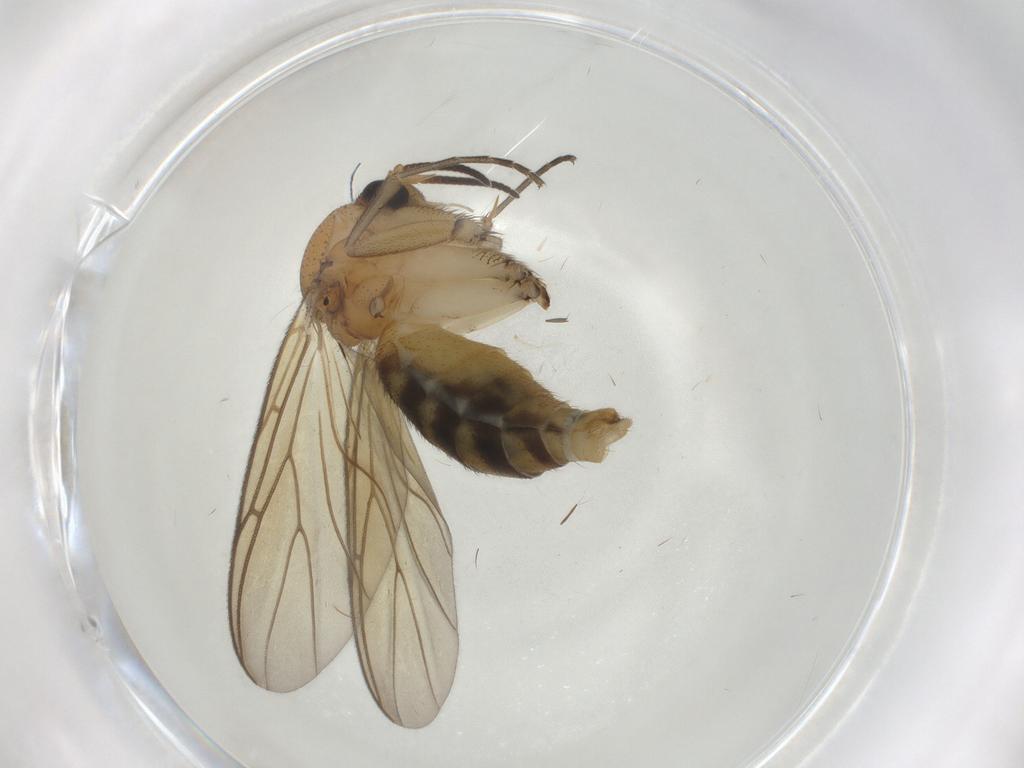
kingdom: Animalia
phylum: Arthropoda
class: Insecta
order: Diptera
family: Mycetophilidae
